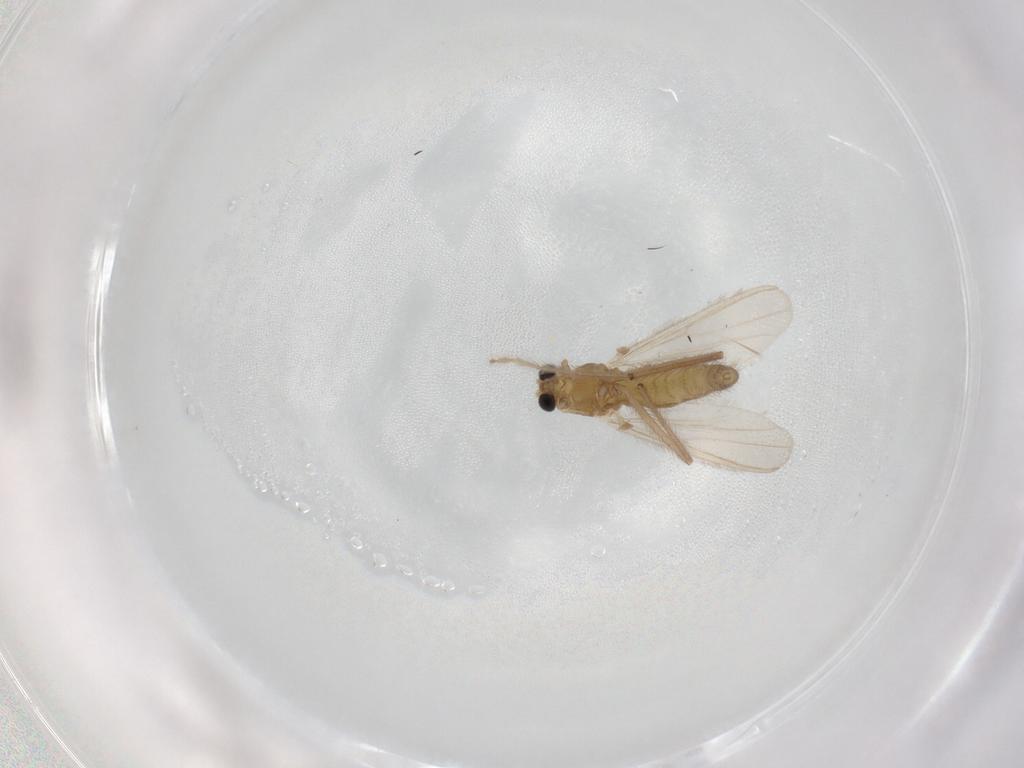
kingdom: Animalia
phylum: Arthropoda
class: Insecta
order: Diptera
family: Chironomidae
